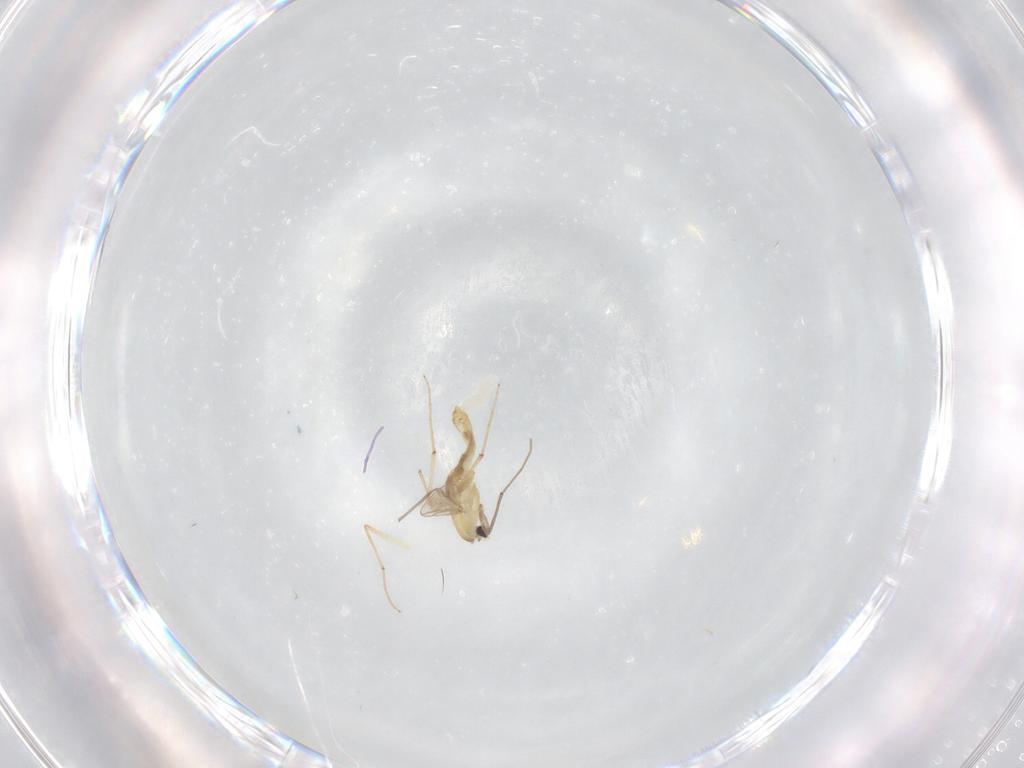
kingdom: Animalia
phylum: Arthropoda
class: Insecta
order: Diptera
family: Chironomidae
